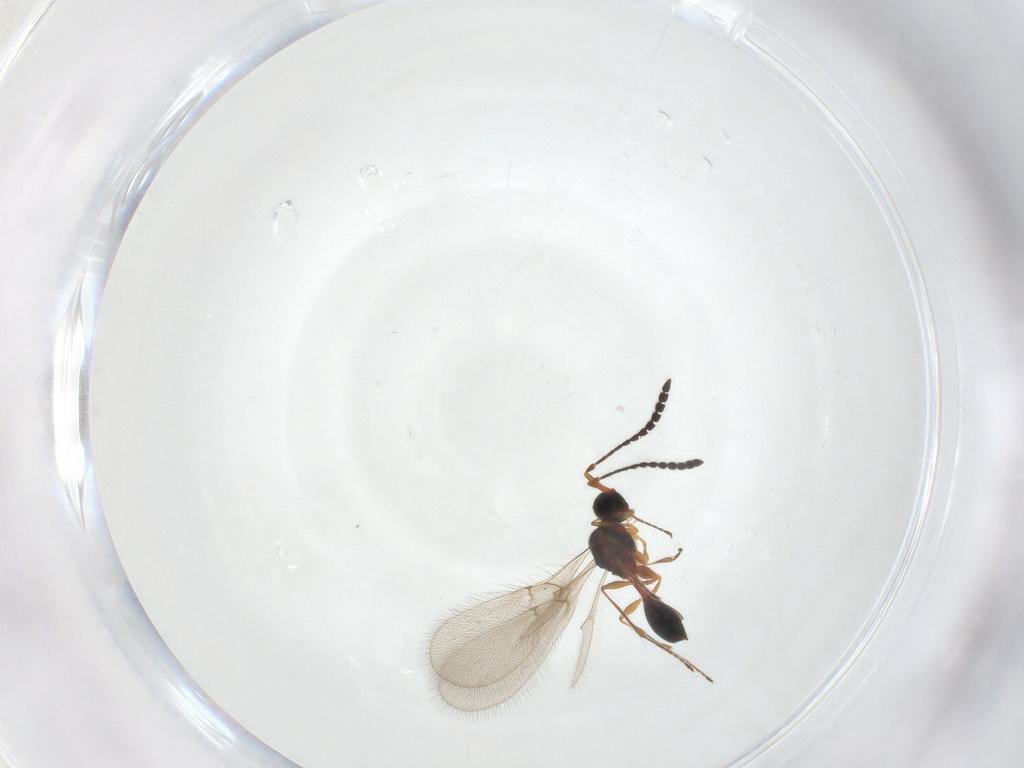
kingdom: Animalia
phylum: Arthropoda
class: Insecta
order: Hymenoptera
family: Diapriidae
